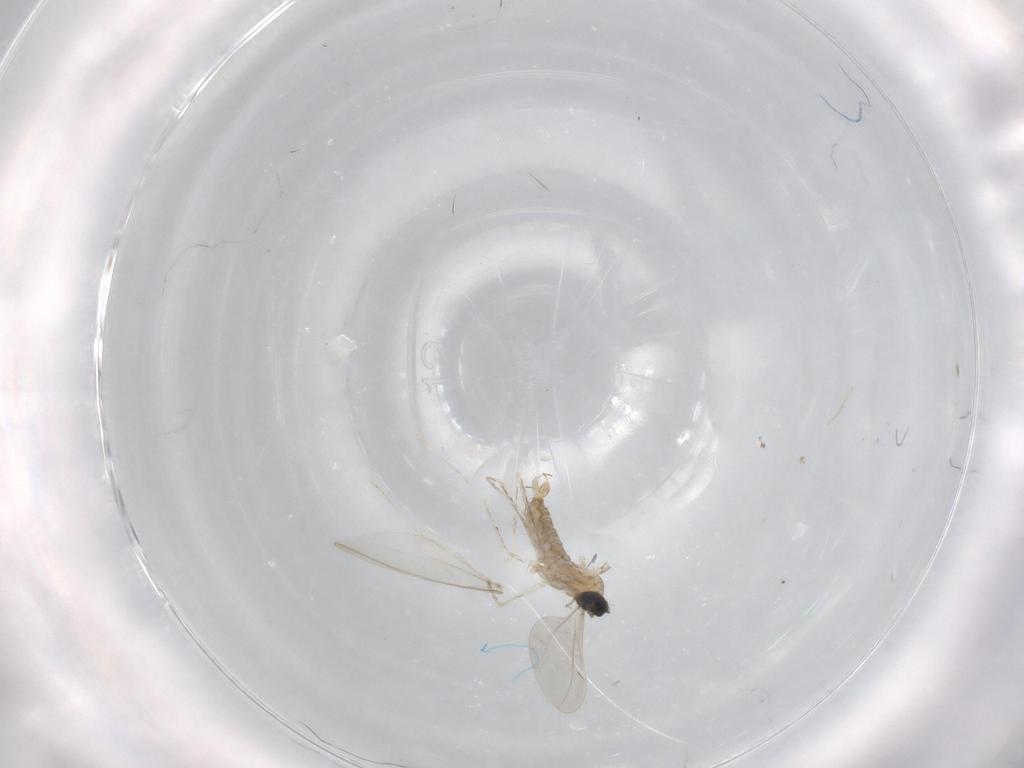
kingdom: Animalia
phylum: Arthropoda
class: Insecta
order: Diptera
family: Cecidomyiidae
